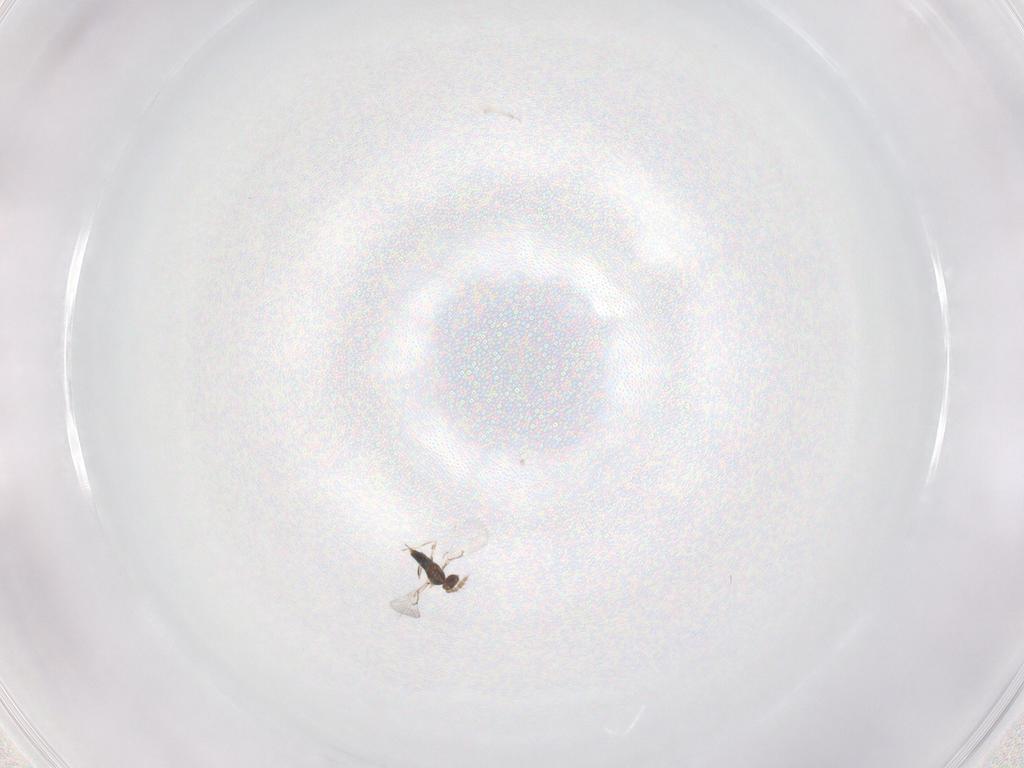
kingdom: Animalia
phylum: Arthropoda
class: Insecta
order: Hymenoptera
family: Trichogrammatidae
